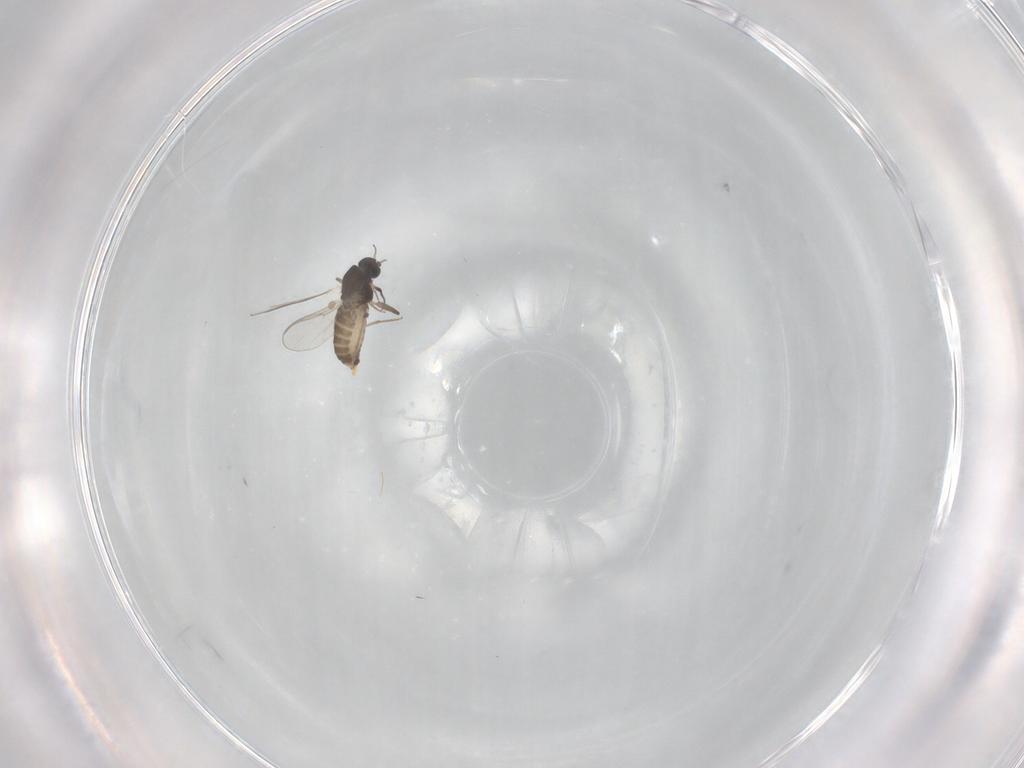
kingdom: Animalia
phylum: Arthropoda
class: Insecta
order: Diptera
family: Chironomidae
